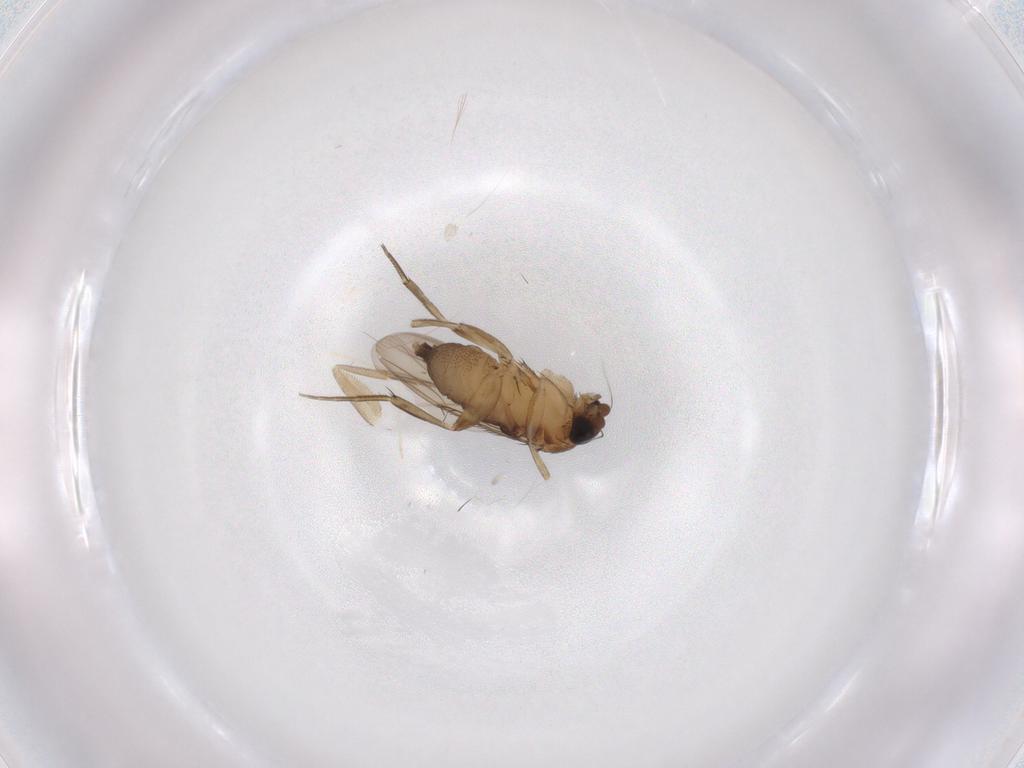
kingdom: Animalia
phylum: Arthropoda
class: Insecta
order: Diptera
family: Phoridae
